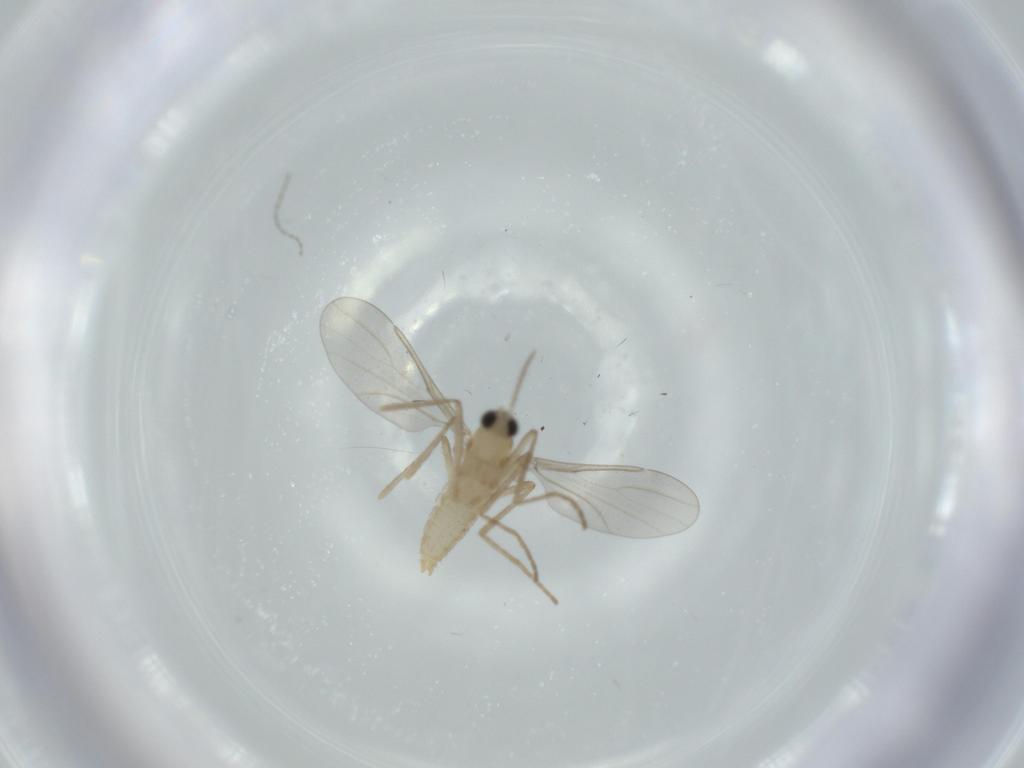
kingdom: Animalia
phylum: Arthropoda
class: Insecta
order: Diptera
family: Cecidomyiidae
